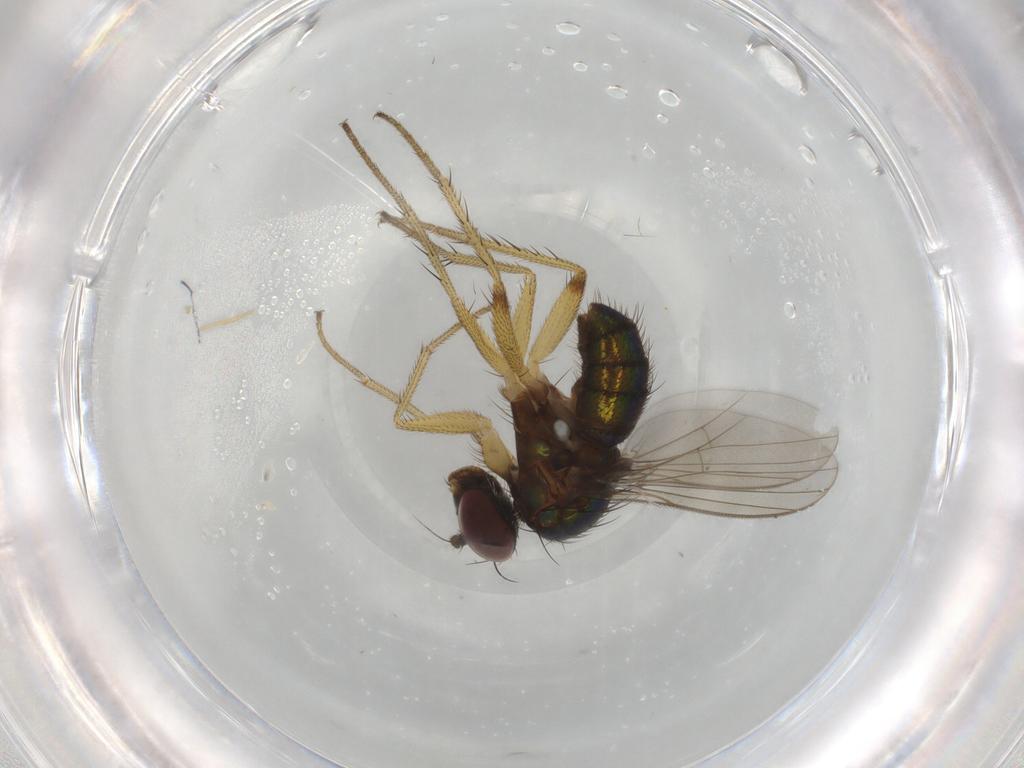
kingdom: Animalia
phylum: Arthropoda
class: Insecta
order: Diptera
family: Dolichopodidae
